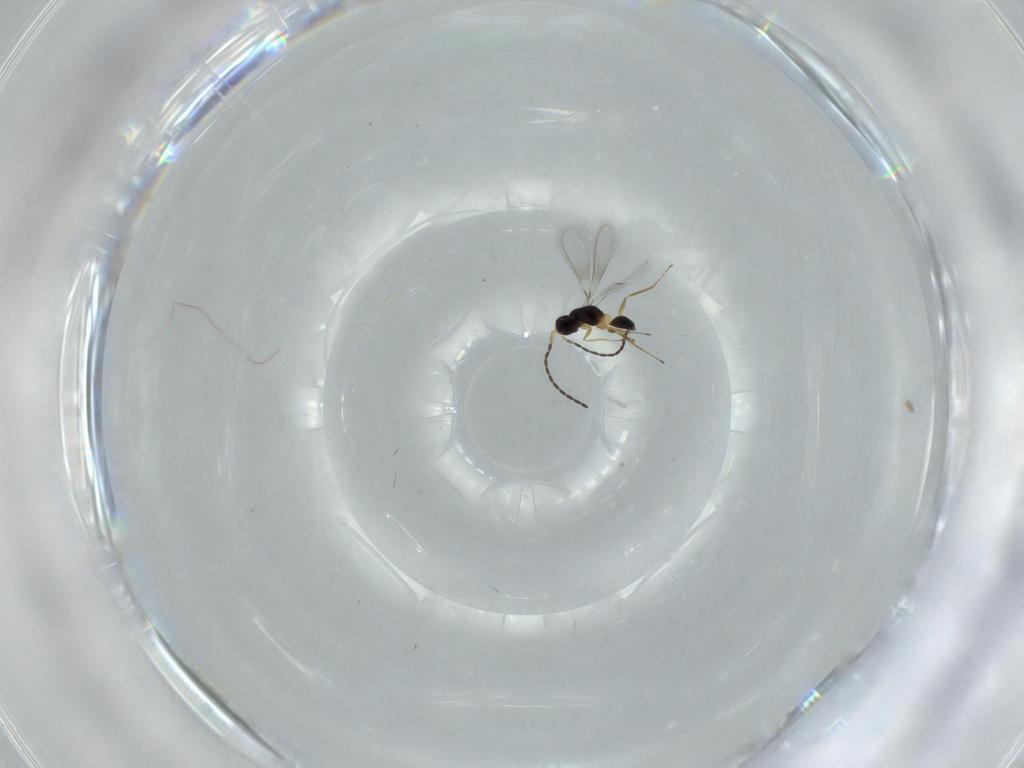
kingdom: Animalia
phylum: Arthropoda
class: Insecta
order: Hymenoptera
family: Mymaridae
